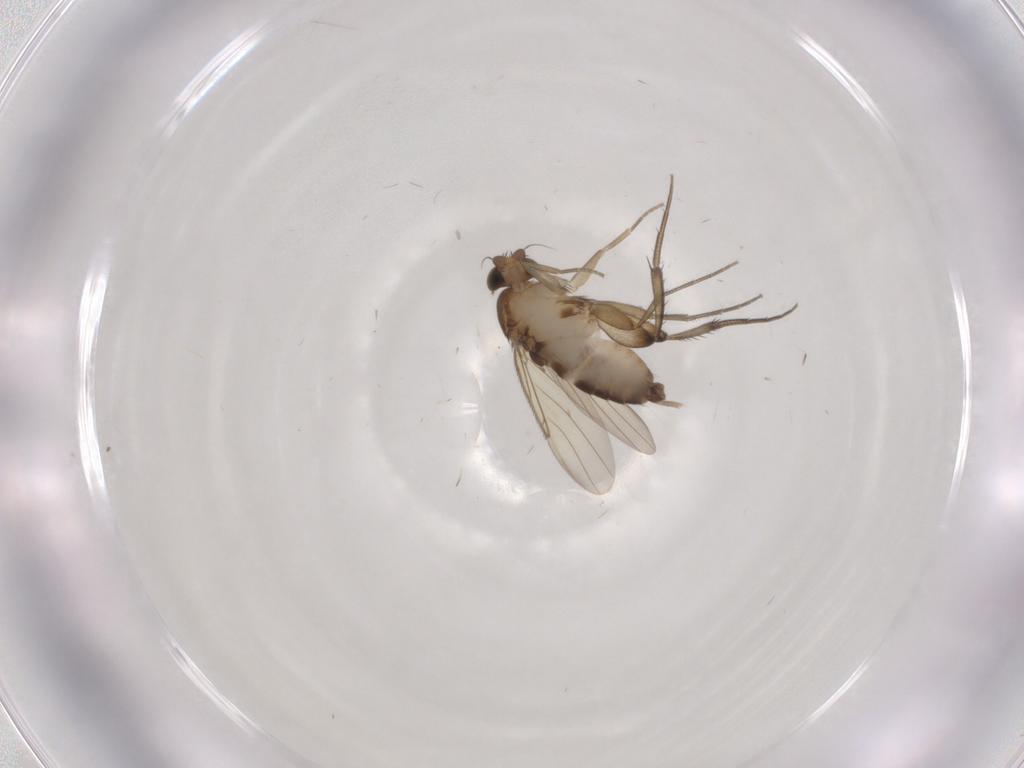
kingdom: Animalia
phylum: Arthropoda
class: Insecta
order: Diptera
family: Phoridae
